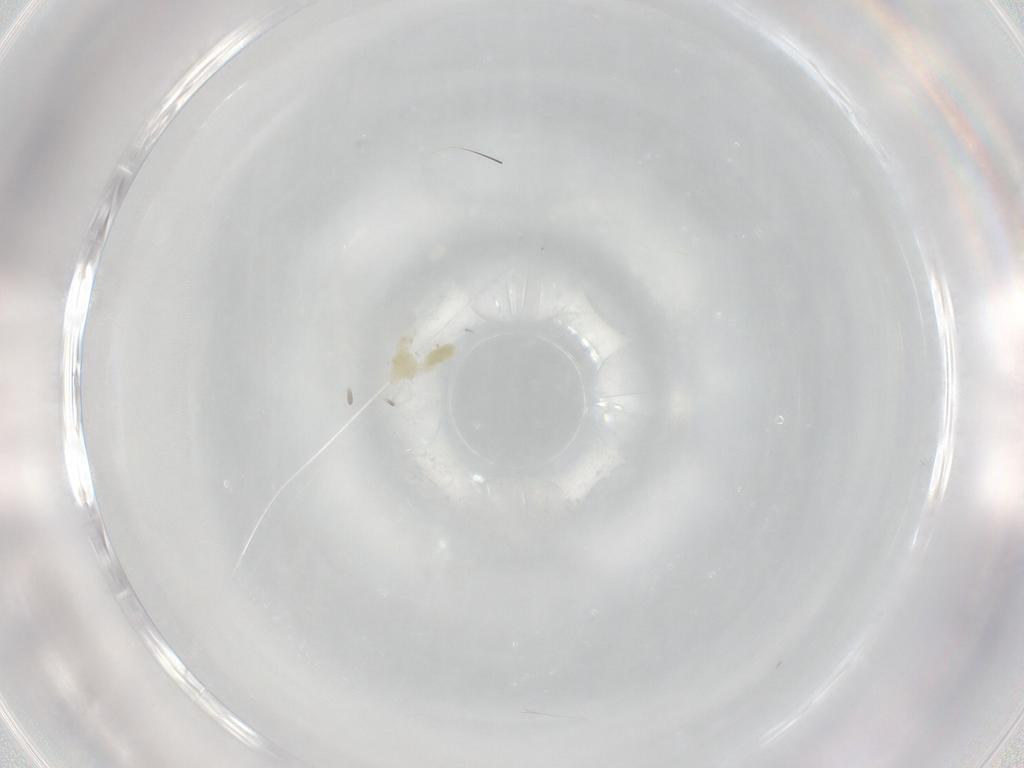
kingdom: Animalia
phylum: Arthropoda
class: Arachnida
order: Trombidiformes
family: Eupodidae
